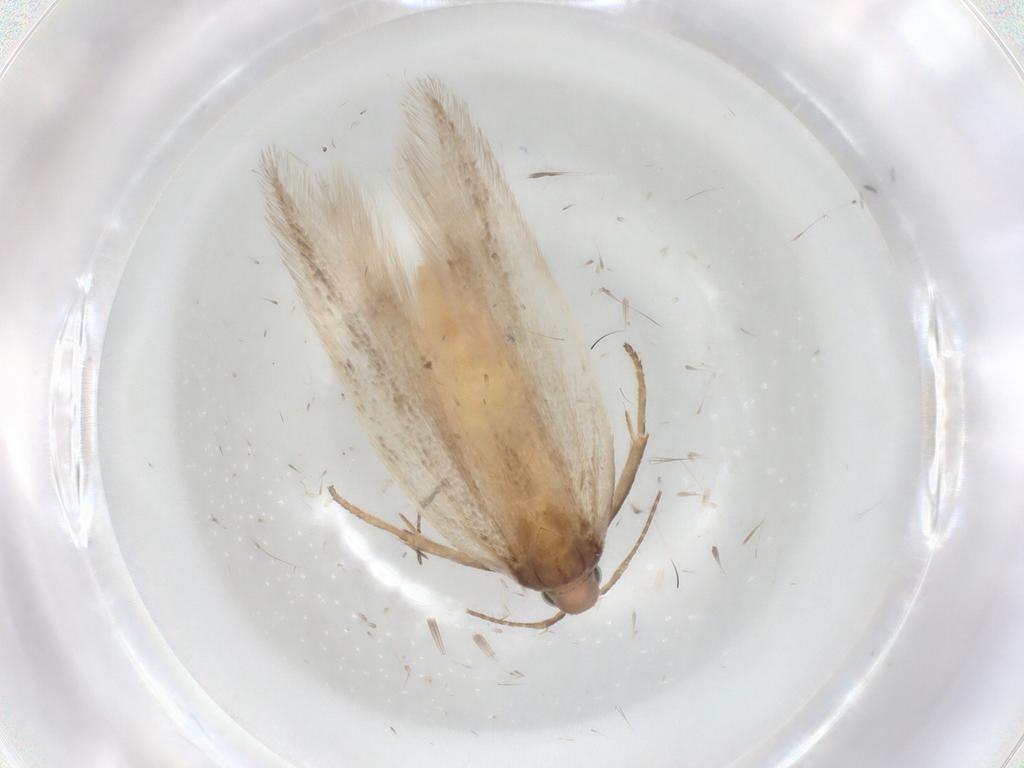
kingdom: Animalia
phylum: Arthropoda
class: Insecta
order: Lepidoptera
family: Gelechiidae
